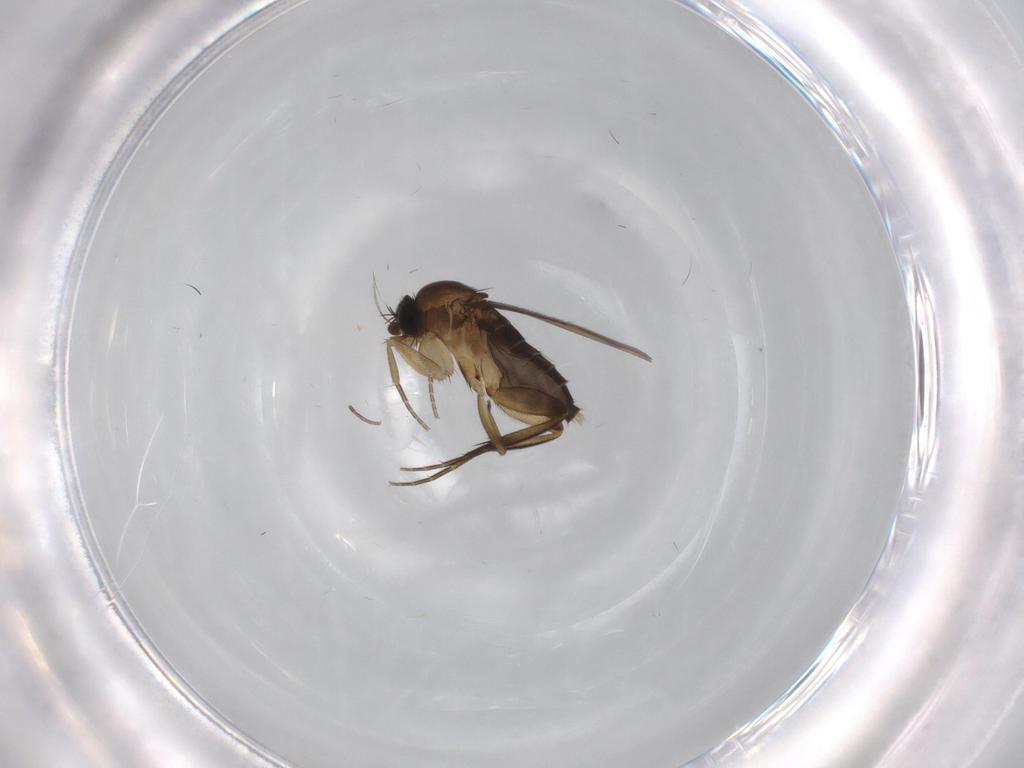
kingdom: Animalia
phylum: Arthropoda
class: Insecta
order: Diptera
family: Phoridae
